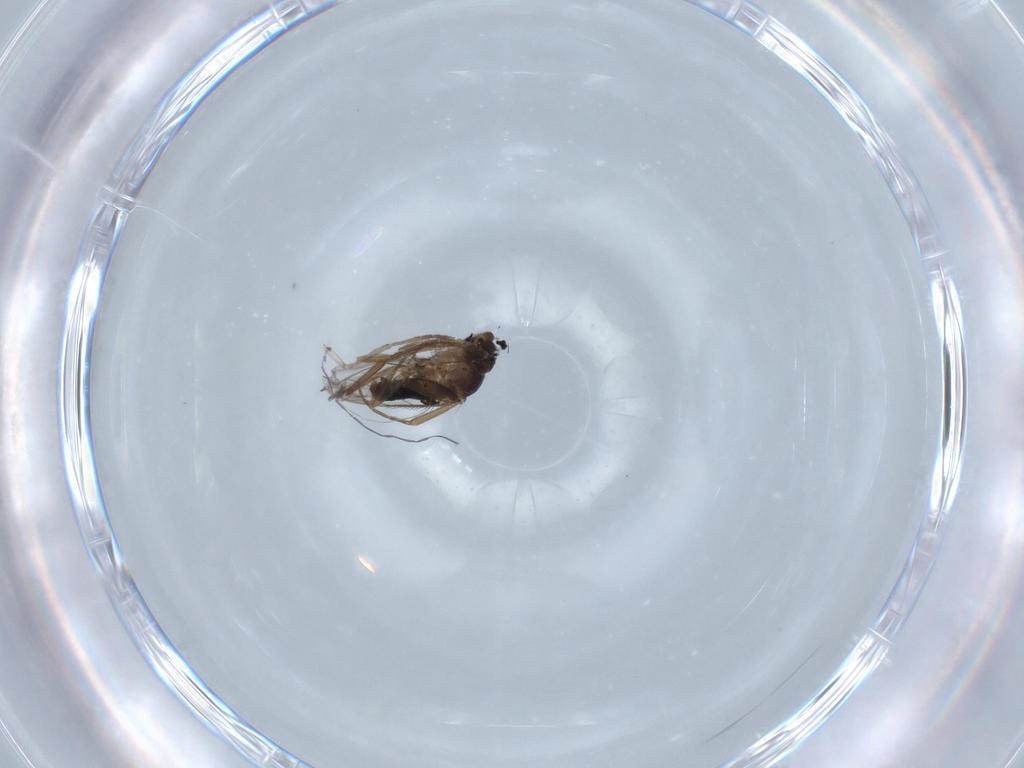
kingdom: Animalia
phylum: Arthropoda
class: Insecta
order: Diptera
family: Phoridae
